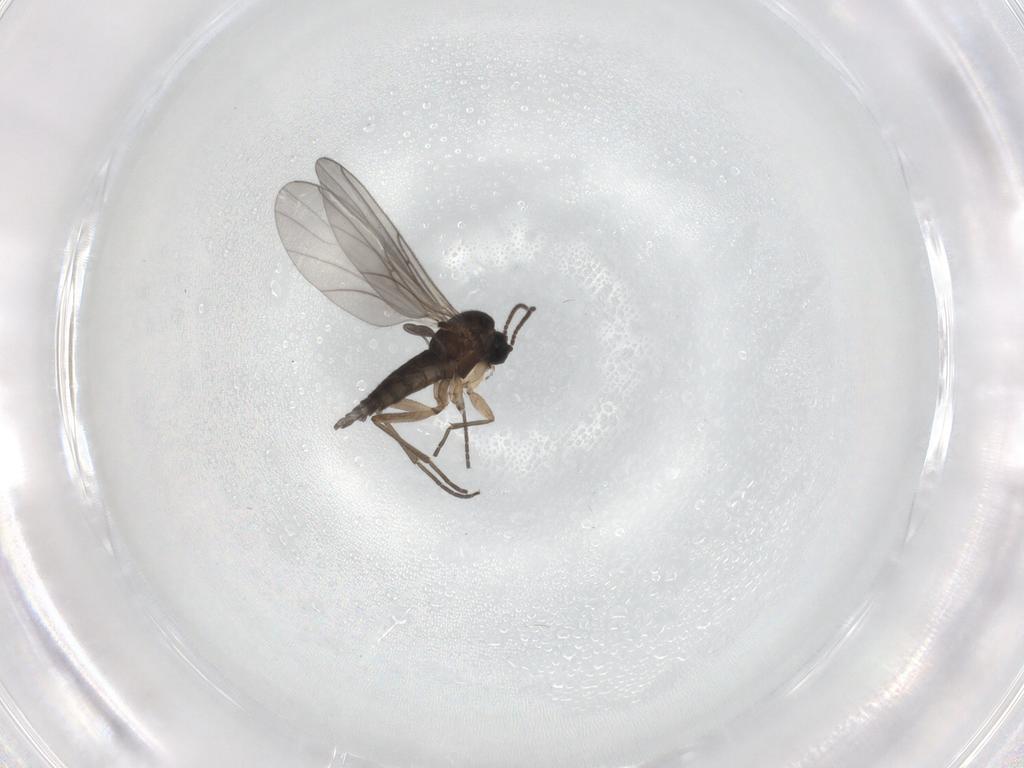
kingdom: Animalia
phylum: Arthropoda
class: Insecta
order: Diptera
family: Sciaridae
